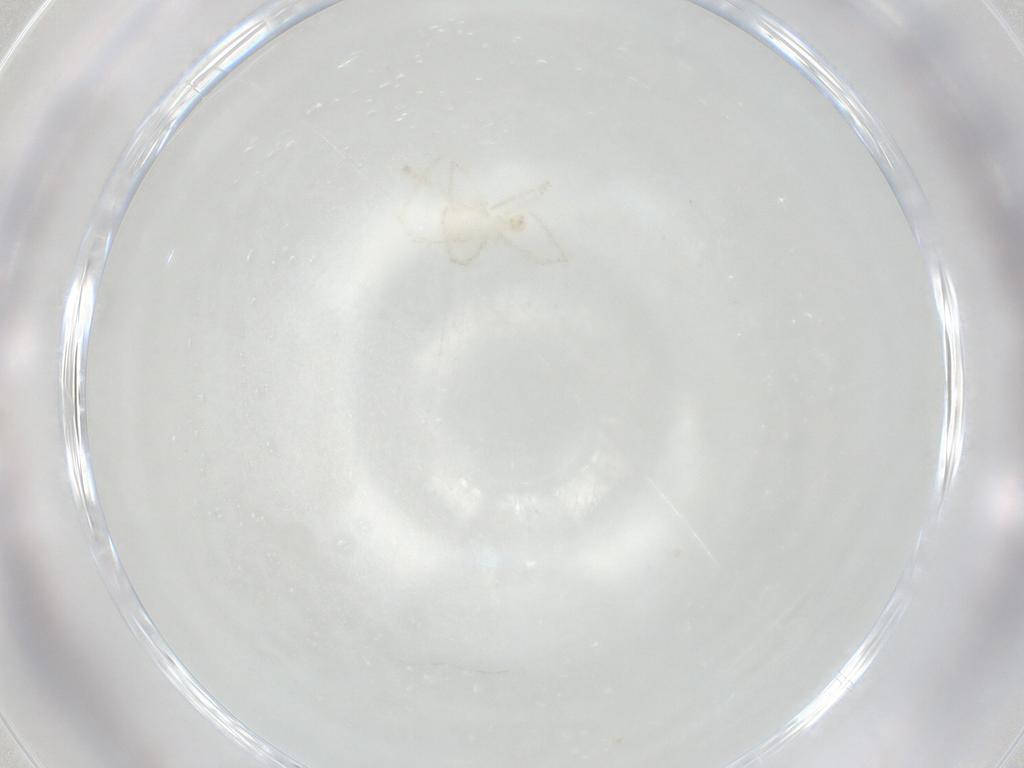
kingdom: Animalia
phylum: Arthropoda
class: Arachnida
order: Trombidiformes
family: Erythraeidae
